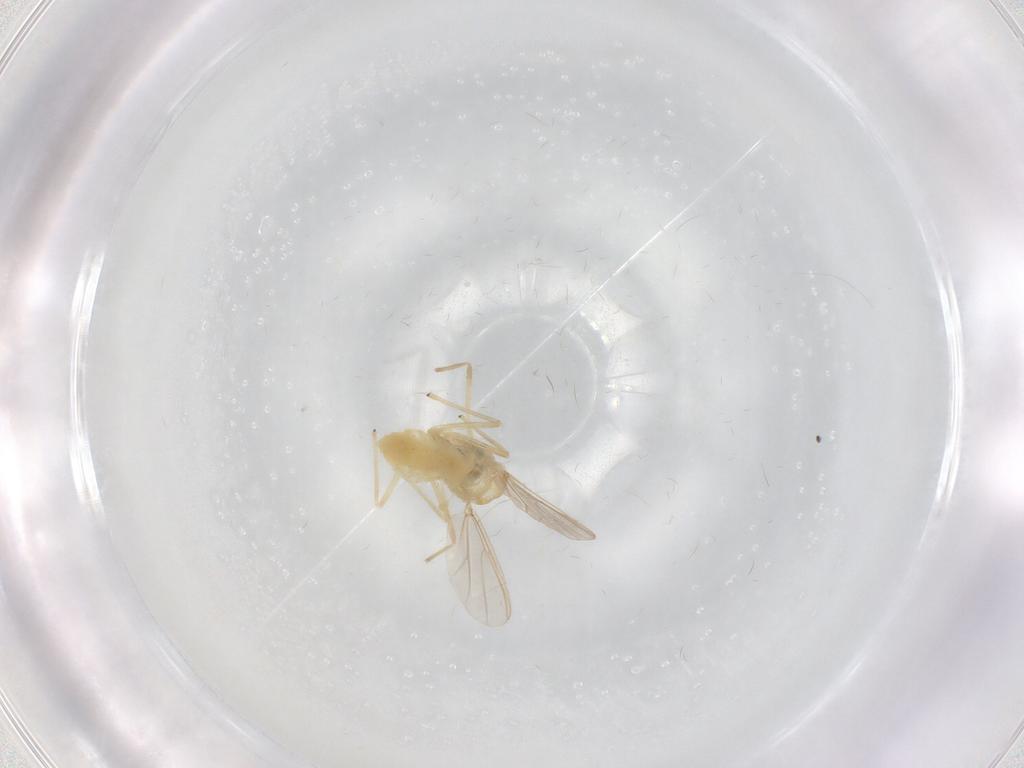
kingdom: Animalia
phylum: Arthropoda
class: Insecta
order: Diptera
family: Chironomidae
